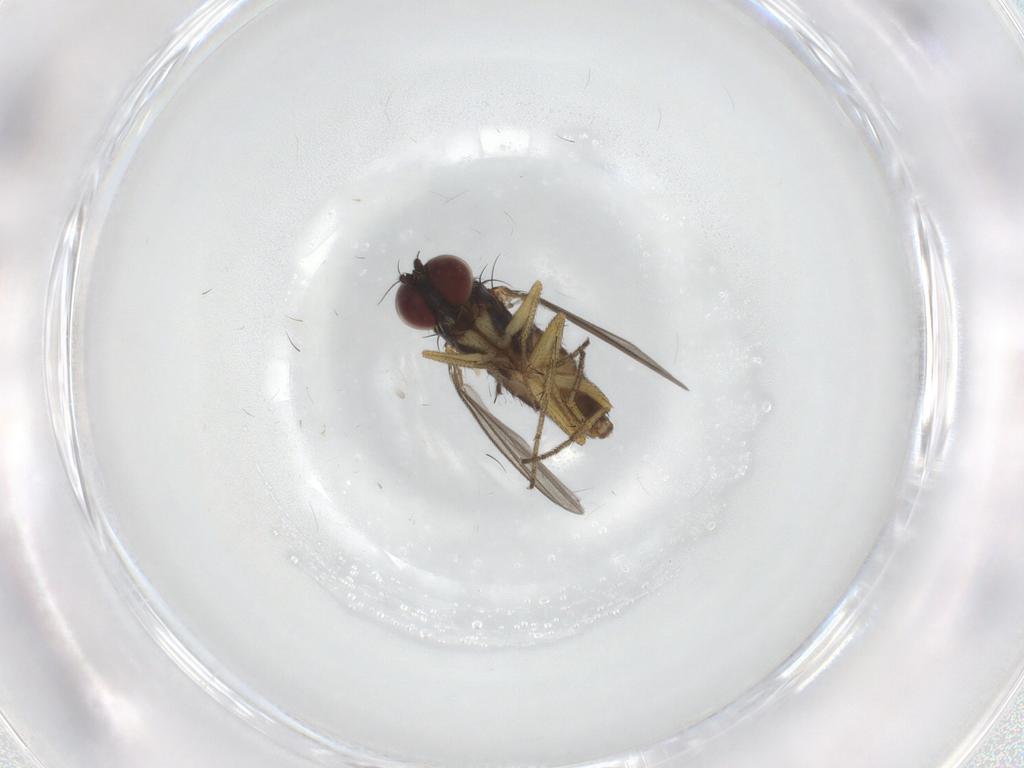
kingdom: Animalia
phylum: Arthropoda
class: Insecta
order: Diptera
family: Dolichopodidae
